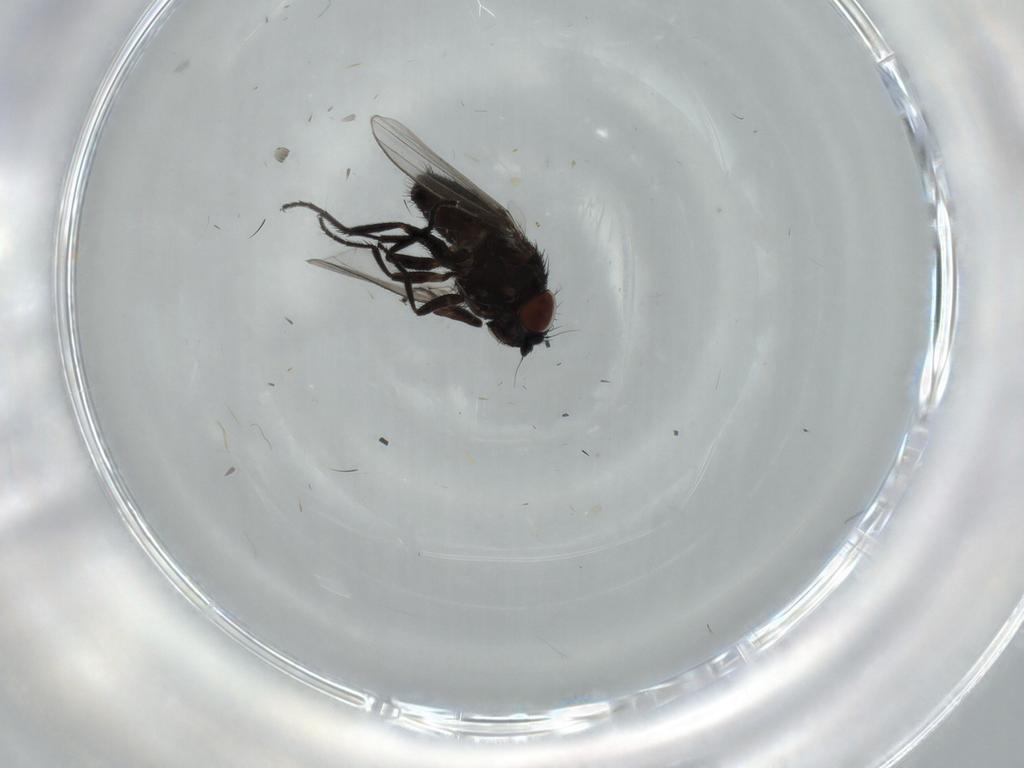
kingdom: Animalia
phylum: Arthropoda
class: Insecta
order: Diptera
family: Milichiidae
